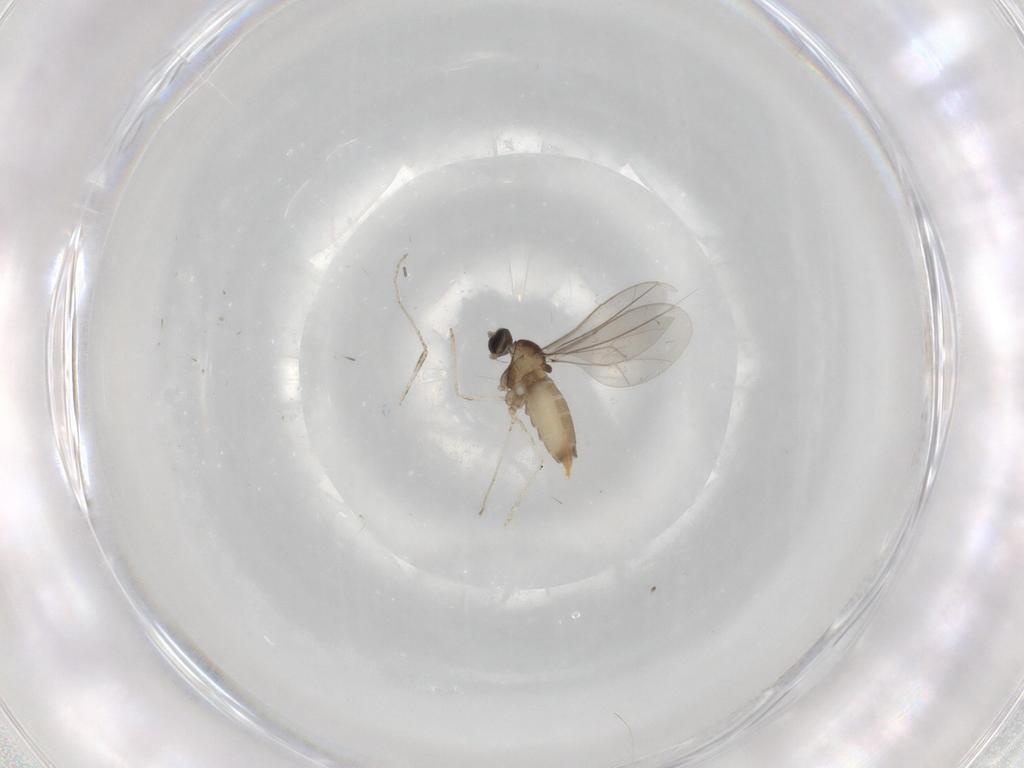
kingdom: Animalia
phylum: Arthropoda
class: Insecta
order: Diptera
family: Cecidomyiidae
